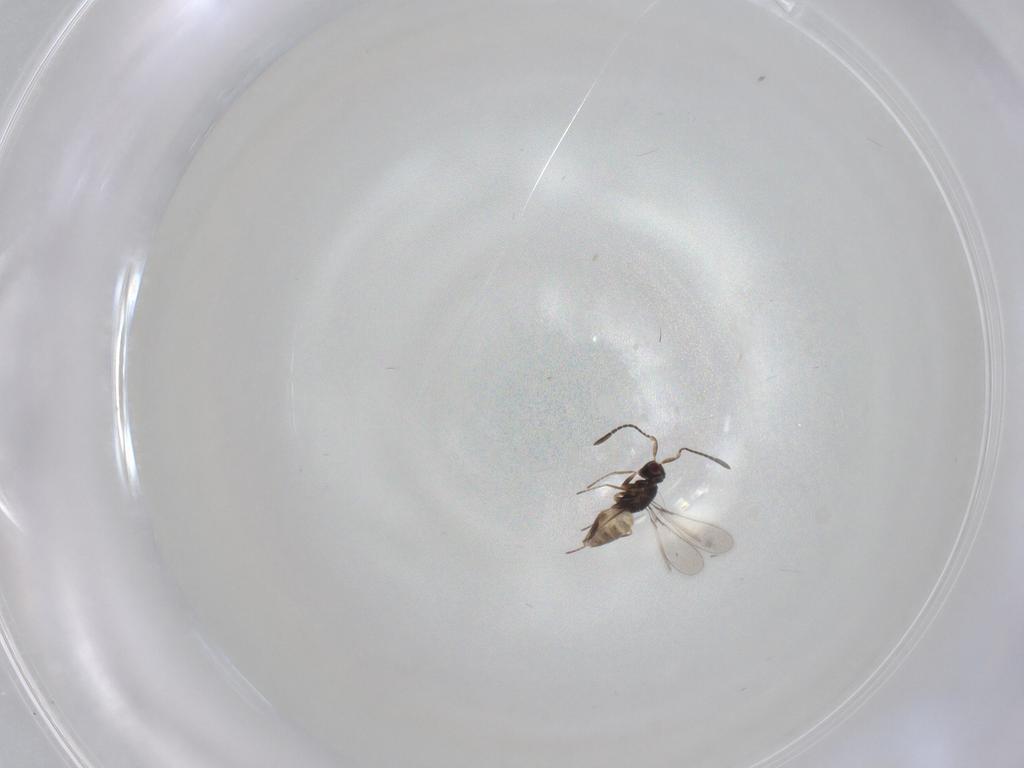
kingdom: Animalia
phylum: Arthropoda
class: Insecta
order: Hymenoptera
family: Mymaridae
